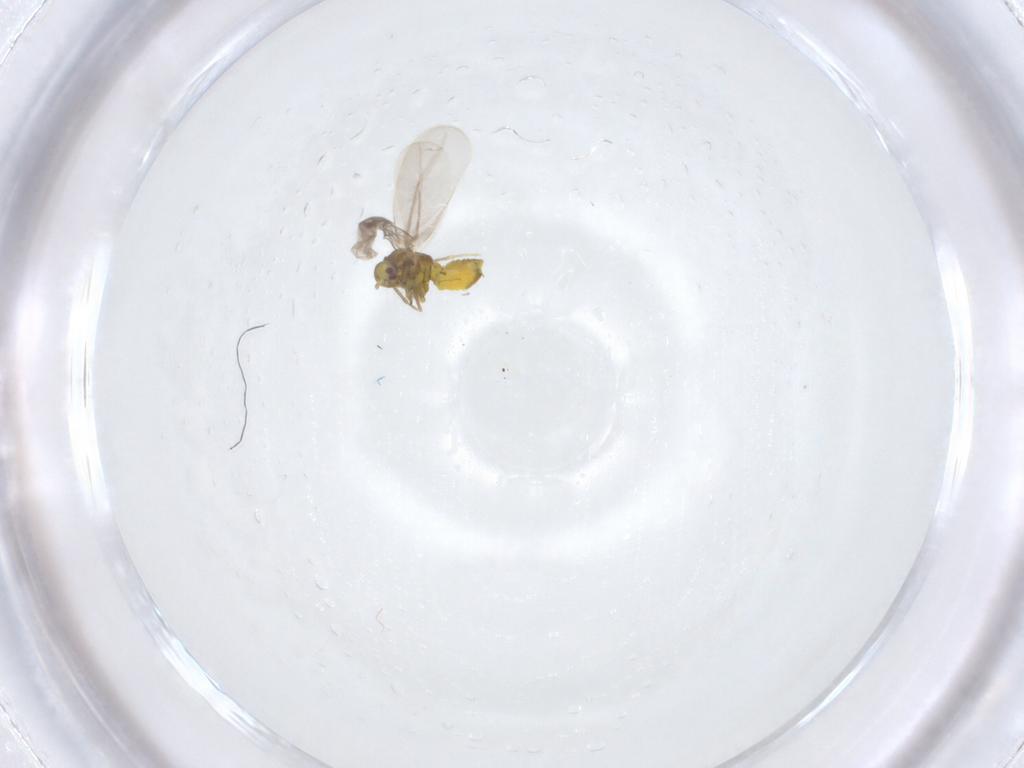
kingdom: Animalia
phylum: Arthropoda
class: Insecta
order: Hemiptera
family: Aleyrodidae
